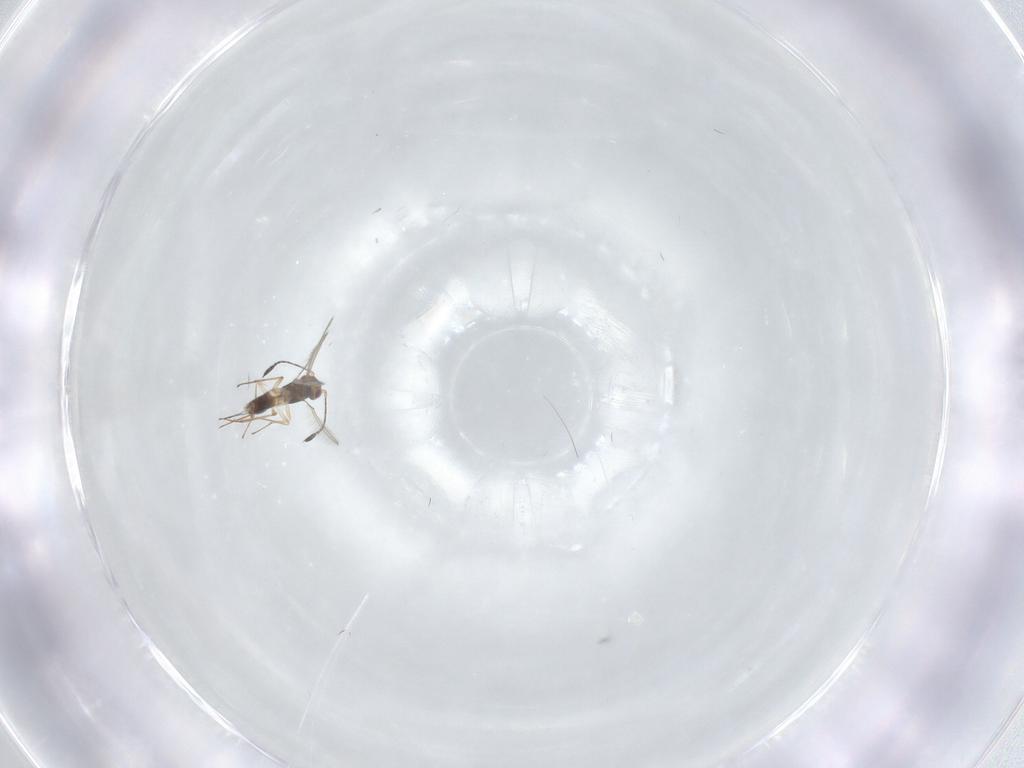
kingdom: Animalia
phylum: Arthropoda
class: Insecta
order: Hymenoptera
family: Mymaridae
